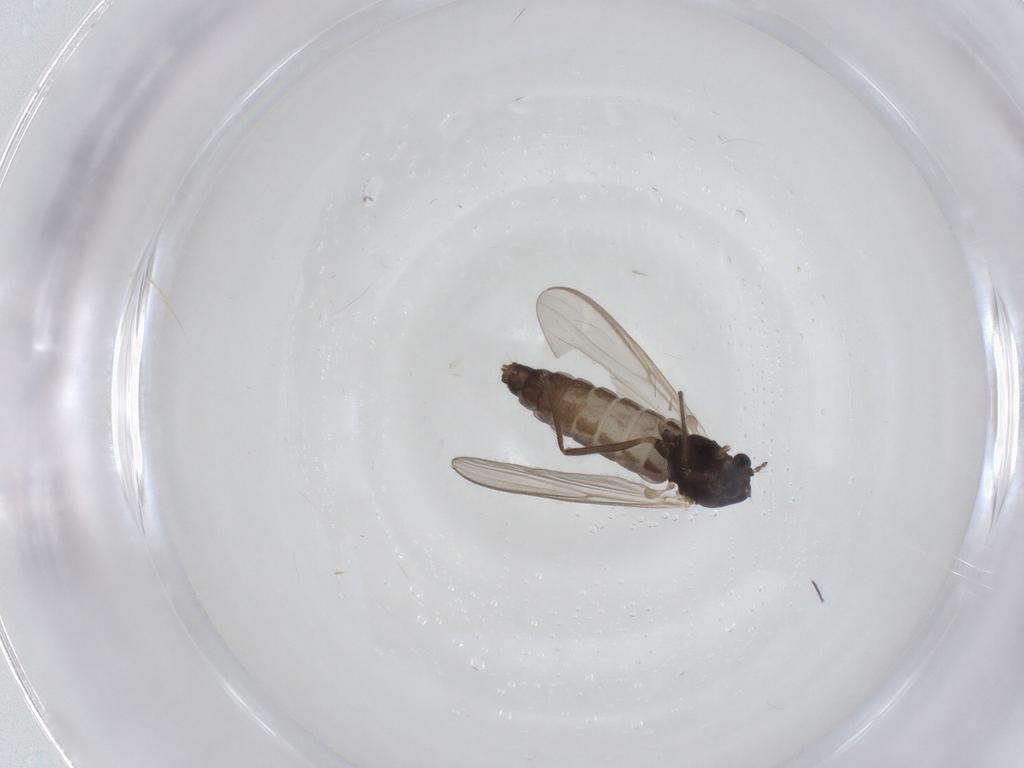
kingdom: Animalia
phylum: Arthropoda
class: Insecta
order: Diptera
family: Chironomidae
